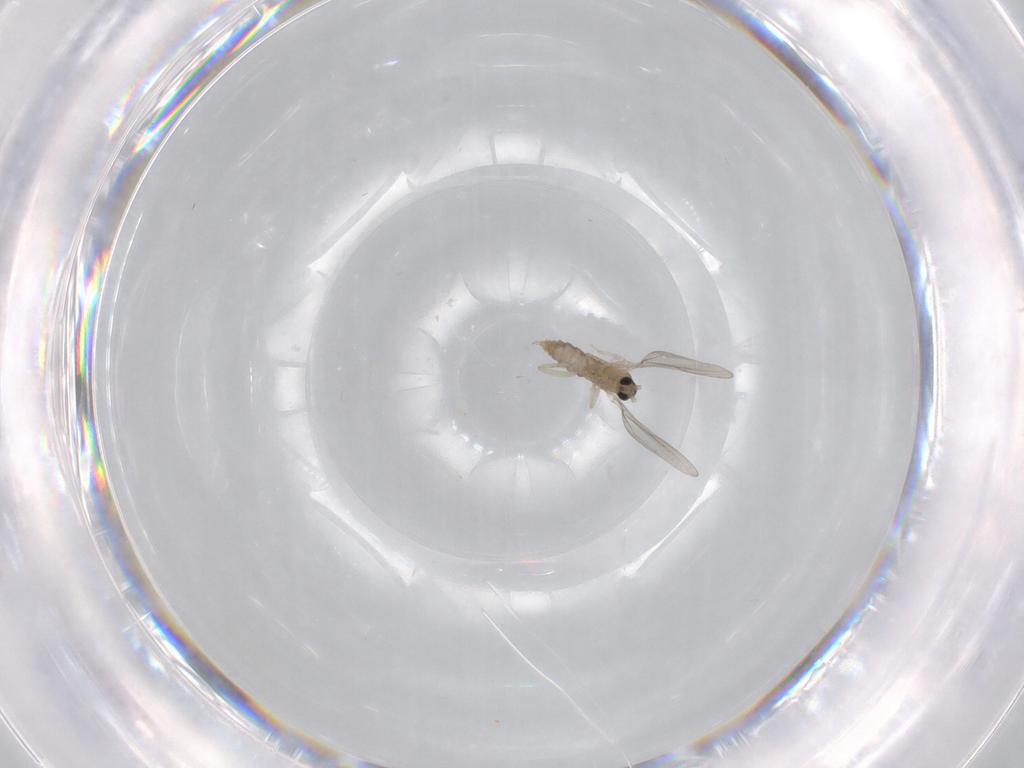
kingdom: Animalia
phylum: Arthropoda
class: Insecta
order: Diptera
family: Cecidomyiidae
